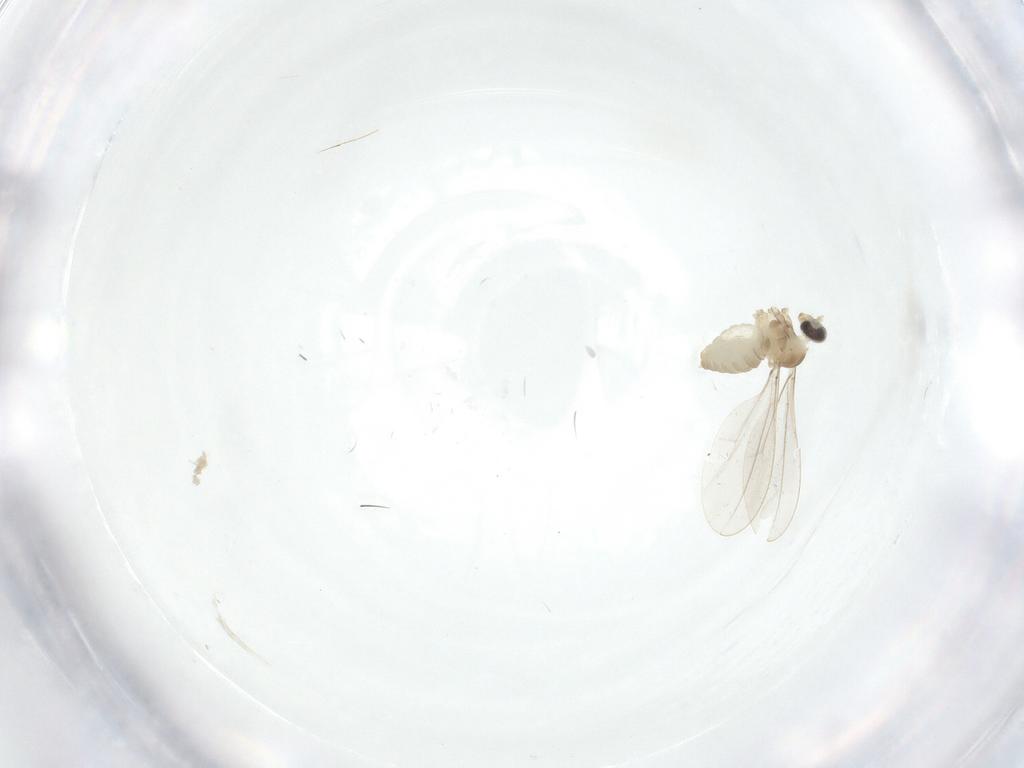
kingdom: Animalia
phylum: Arthropoda
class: Insecta
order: Diptera
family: Cecidomyiidae
